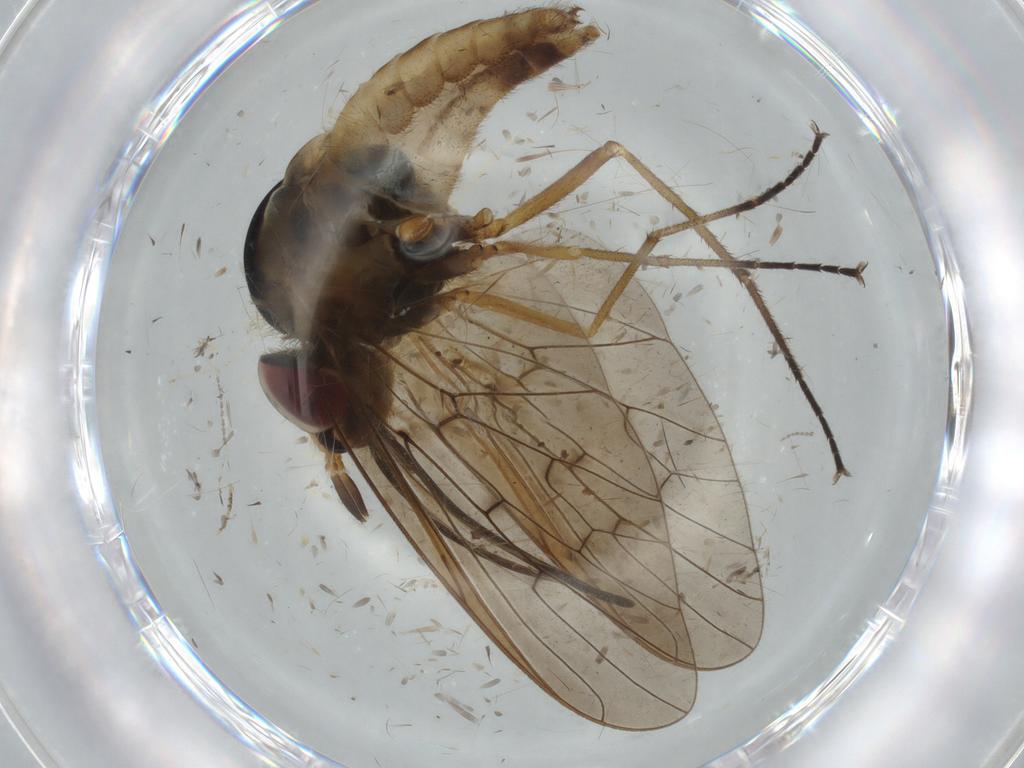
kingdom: Animalia
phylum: Arthropoda
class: Insecta
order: Diptera
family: Bombyliidae
